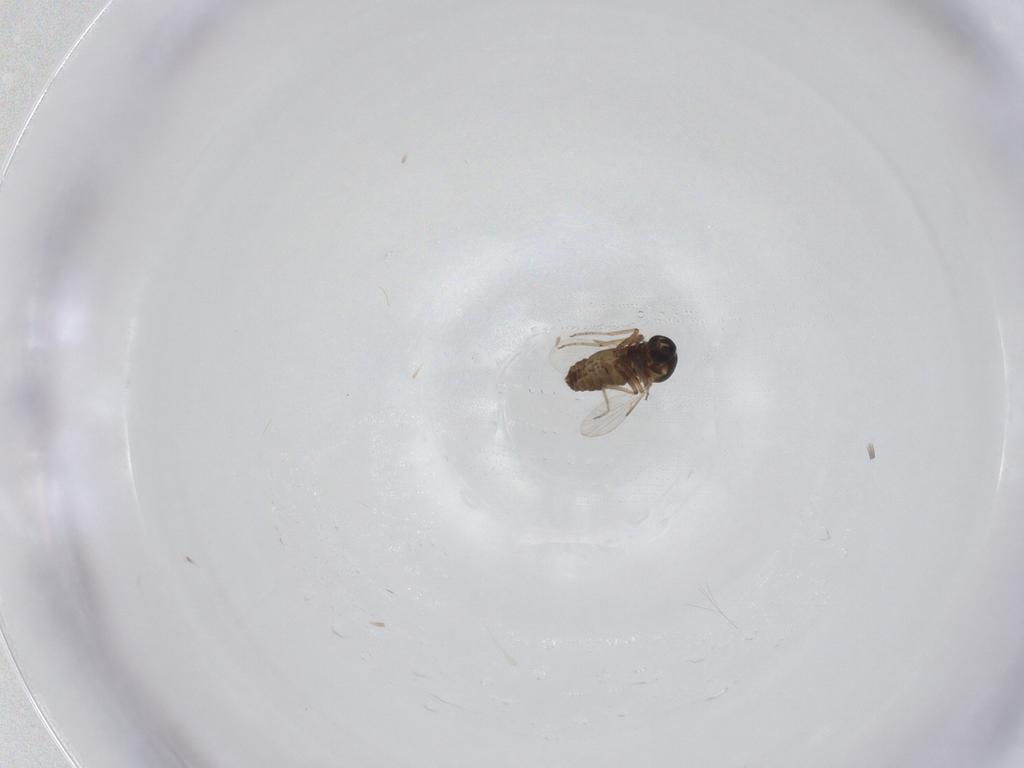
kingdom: Animalia
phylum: Arthropoda
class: Insecta
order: Diptera
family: Ceratopogonidae
